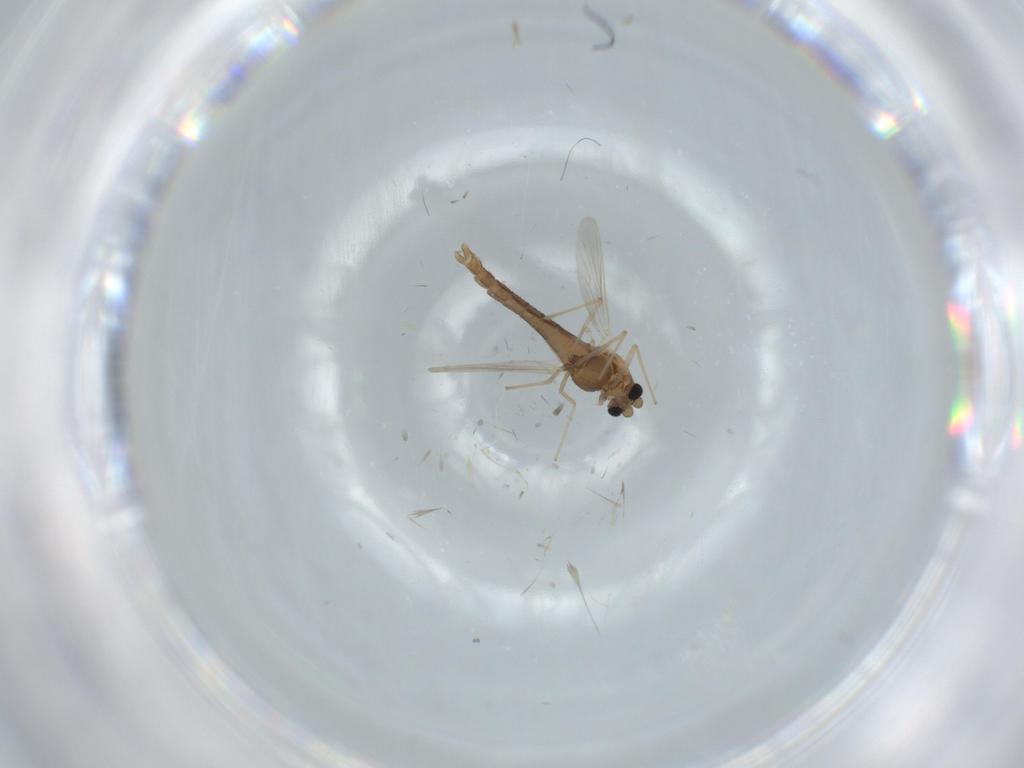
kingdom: Animalia
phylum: Arthropoda
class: Insecta
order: Diptera
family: Chironomidae
